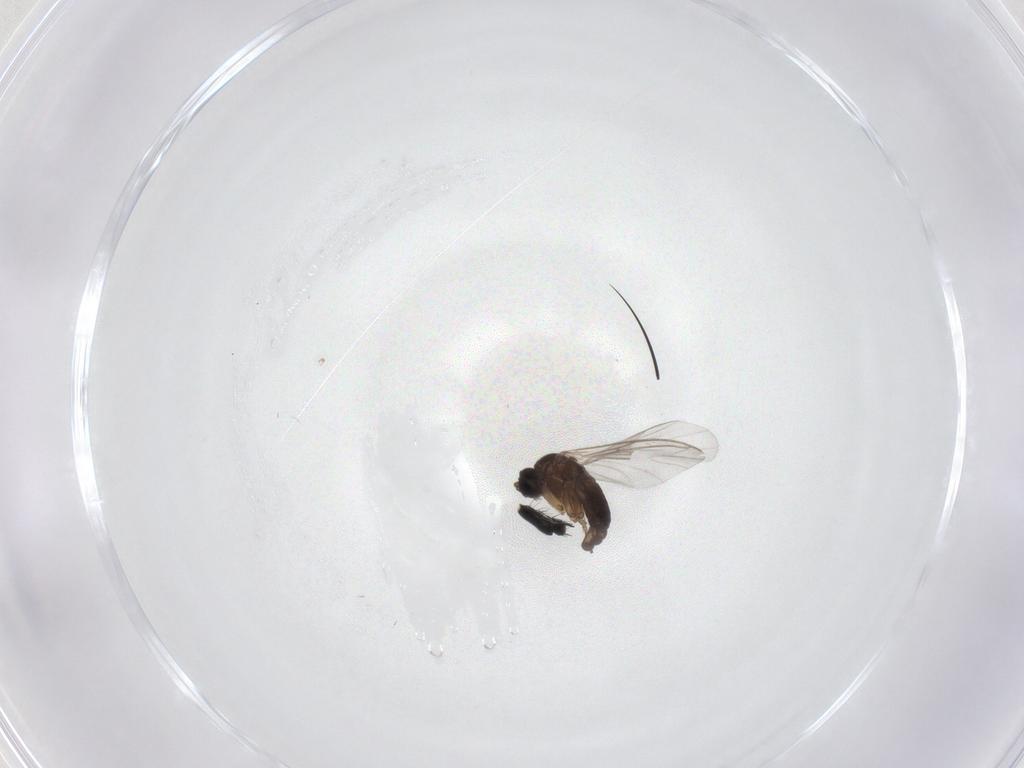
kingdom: Animalia
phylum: Arthropoda
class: Insecta
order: Diptera
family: Sciaridae
